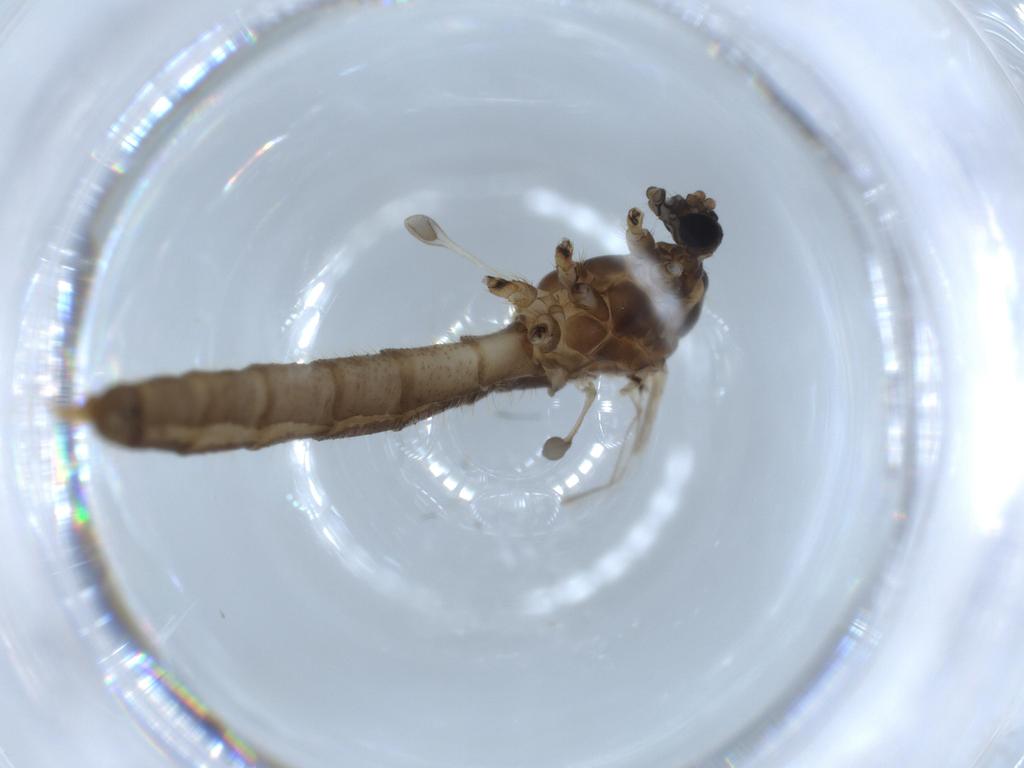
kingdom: Animalia
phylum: Arthropoda
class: Insecta
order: Diptera
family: Trichoceridae
